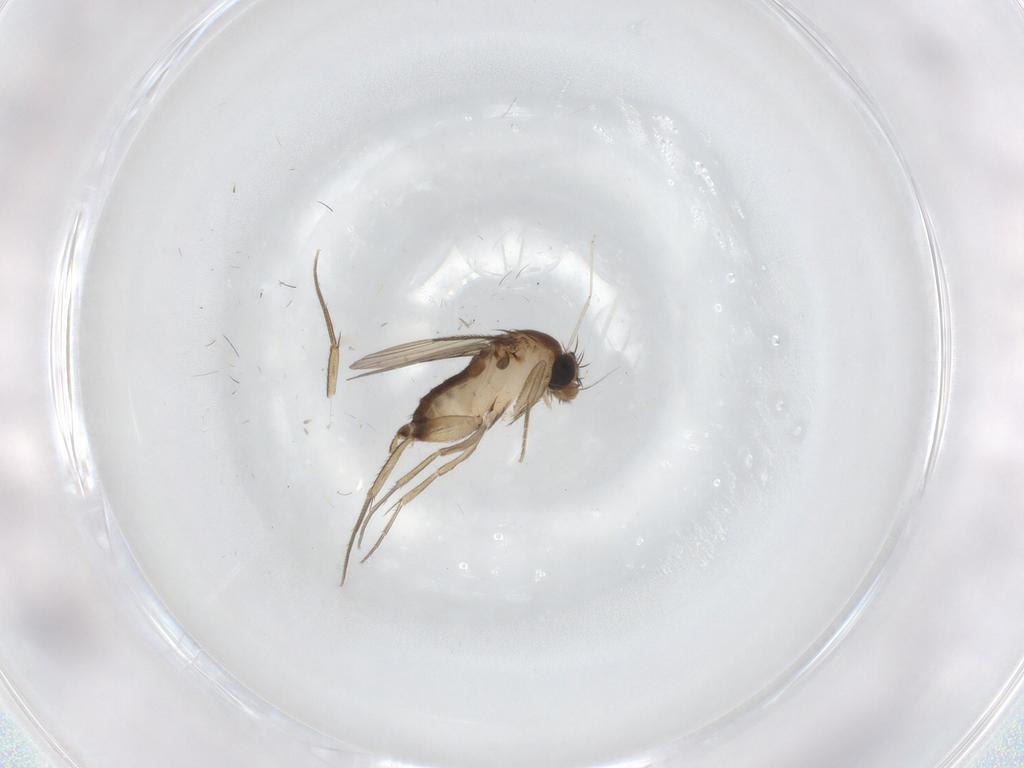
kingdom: Animalia
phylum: Arthropoda
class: Insecta
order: Diptera
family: Phoridae
